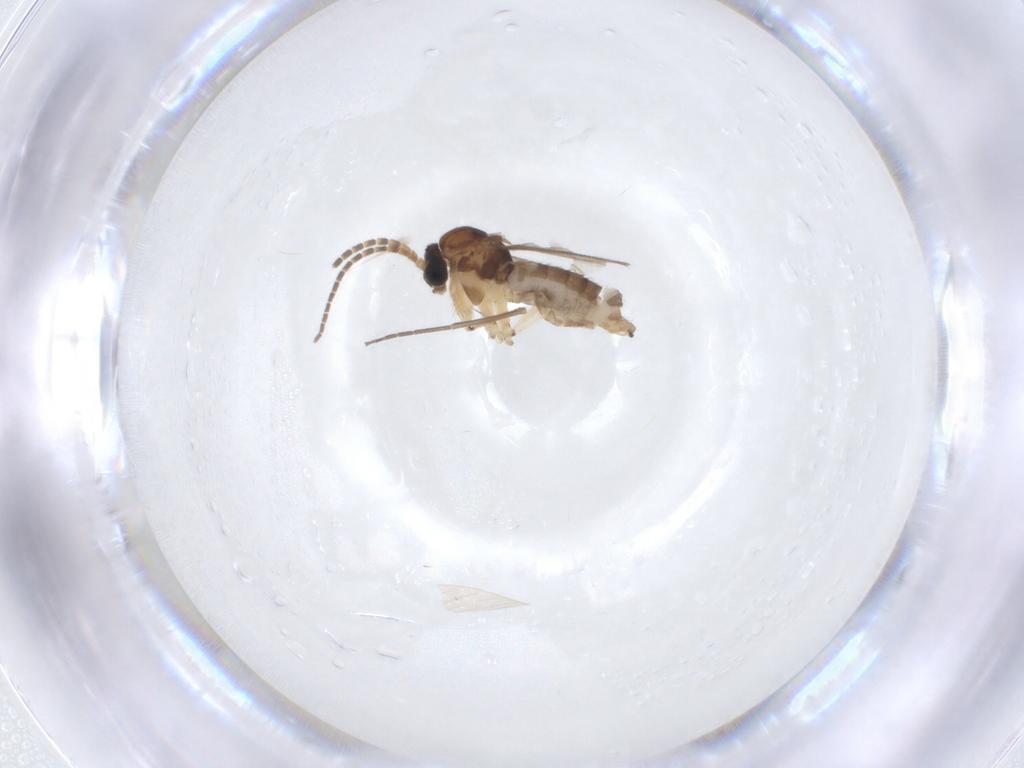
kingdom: Animalia
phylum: Arthropoda
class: Insecta
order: Diptera
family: Sciaridae
